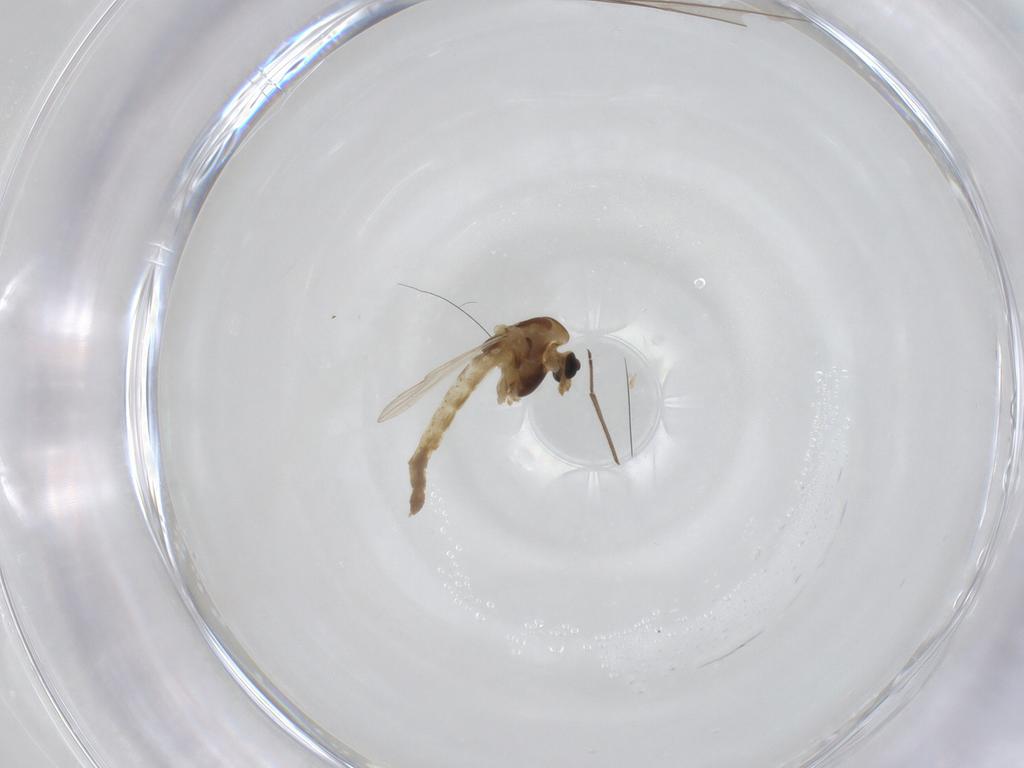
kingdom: Animalia
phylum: Arthropoda
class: Insecta
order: Diptera
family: Chironomidae
